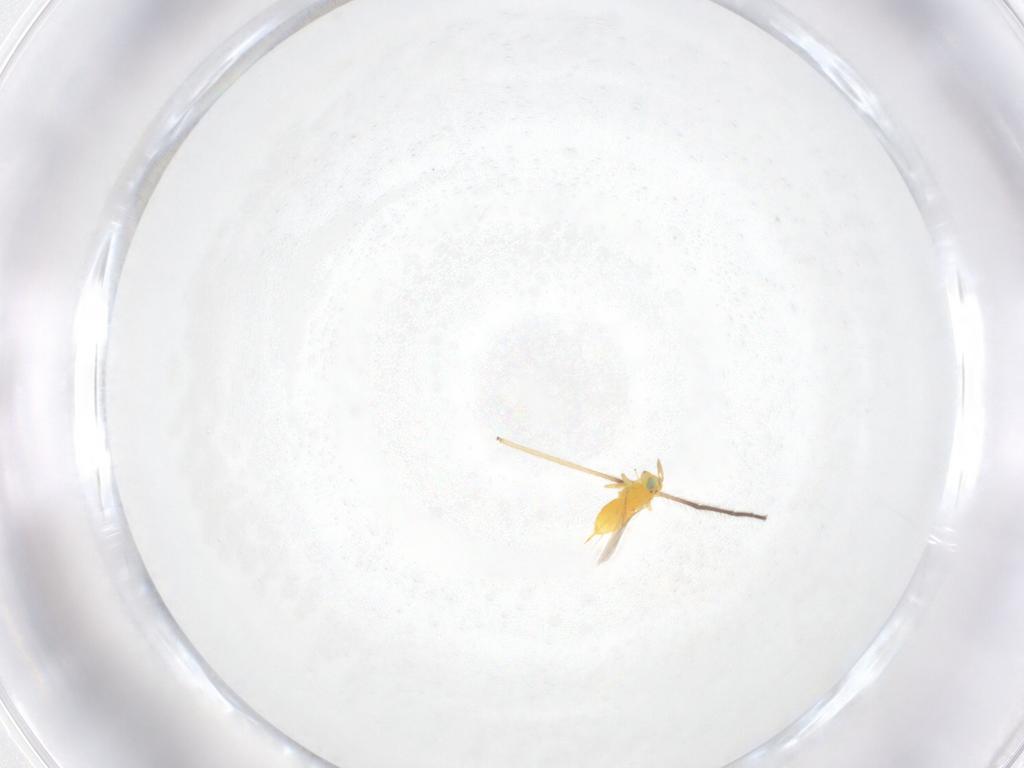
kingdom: Animalia
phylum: Arthropoda
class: Insecta
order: Hymenoptera
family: Aphelinidae
